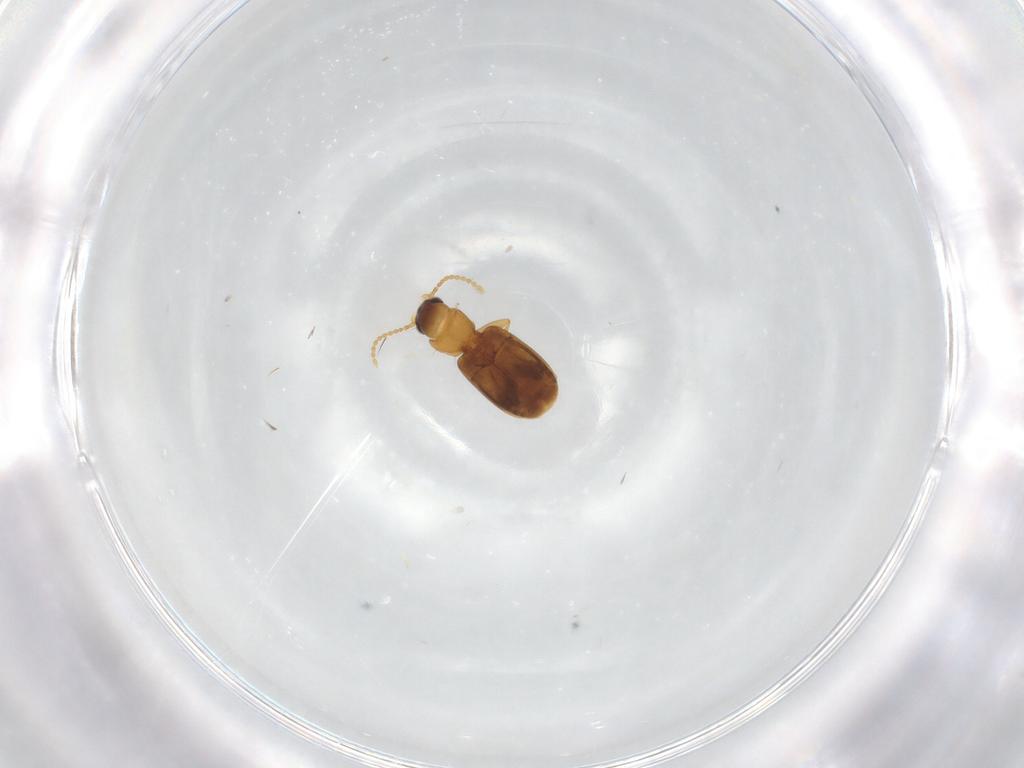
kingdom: Animalia
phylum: Arthropoda
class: Insecta
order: Coleoptera
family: Carabidae
